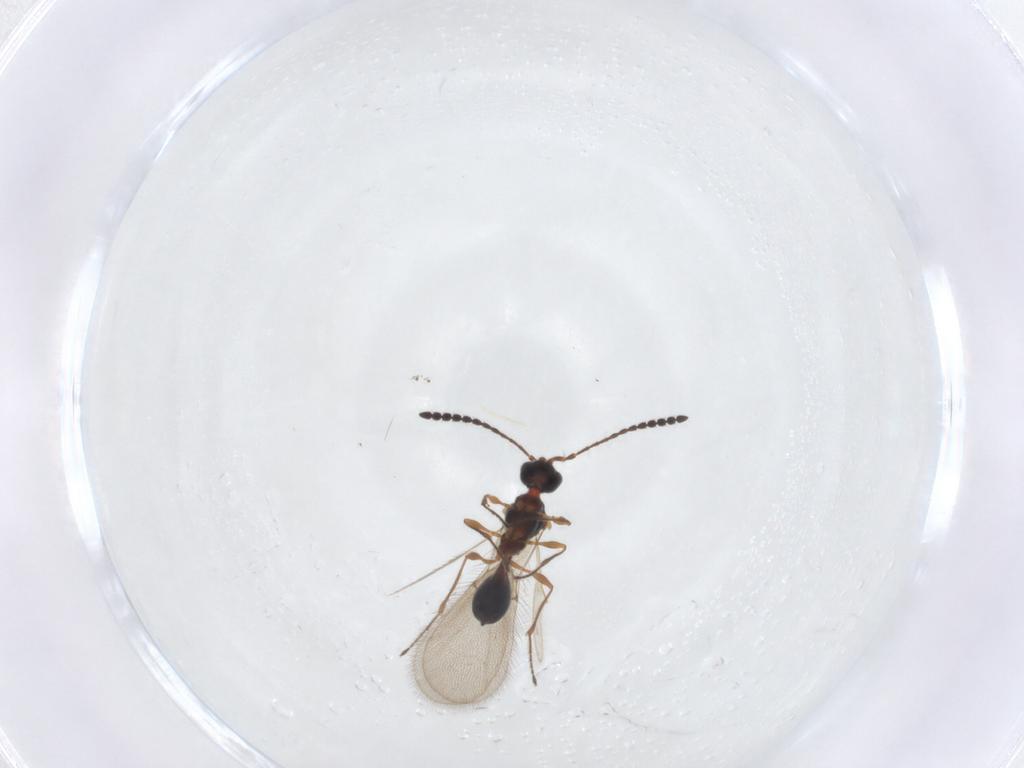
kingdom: Animalia
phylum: Arthropoda
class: Insecta
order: Hymenoptera
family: Diapriidae
